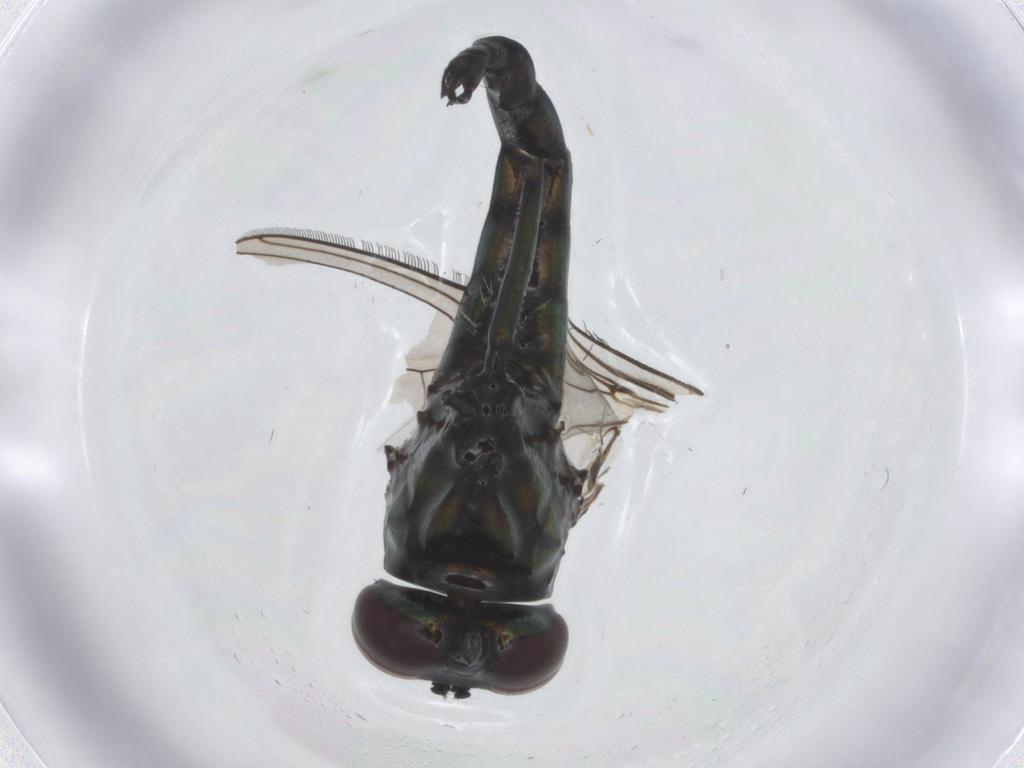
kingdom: Animalia
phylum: Arthropoda
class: Insecta
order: Diptera
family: Dolichopodidae
